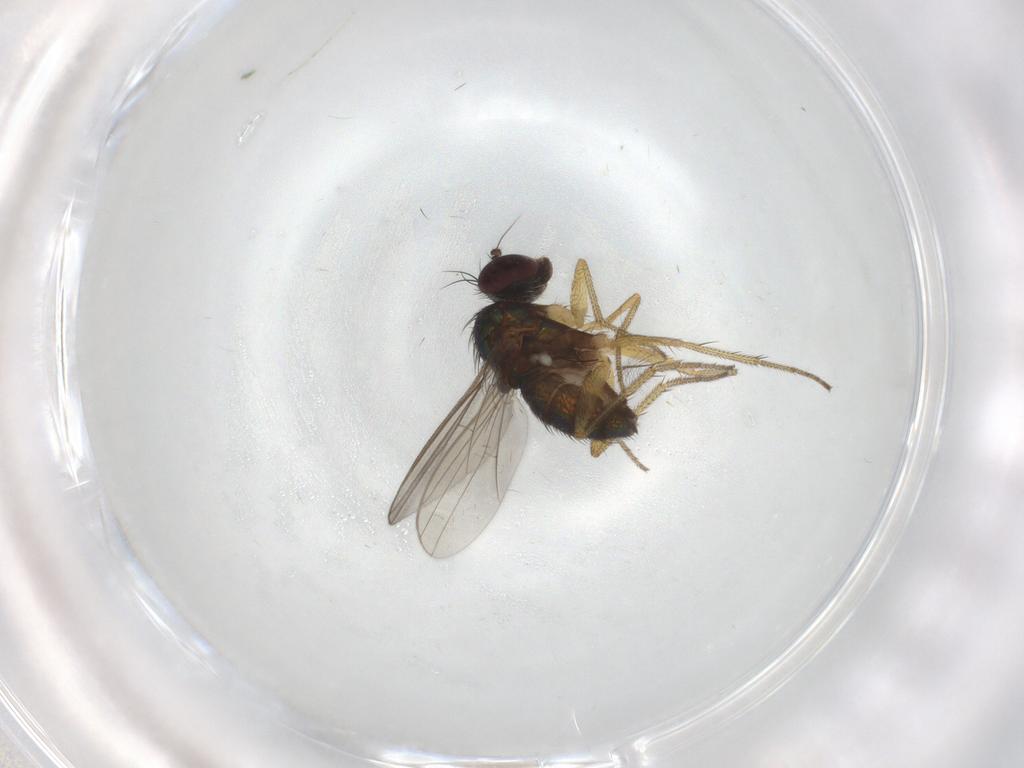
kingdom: Animalia
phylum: Arthropoda
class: Insecta
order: Diptera
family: Dolichopodidae
